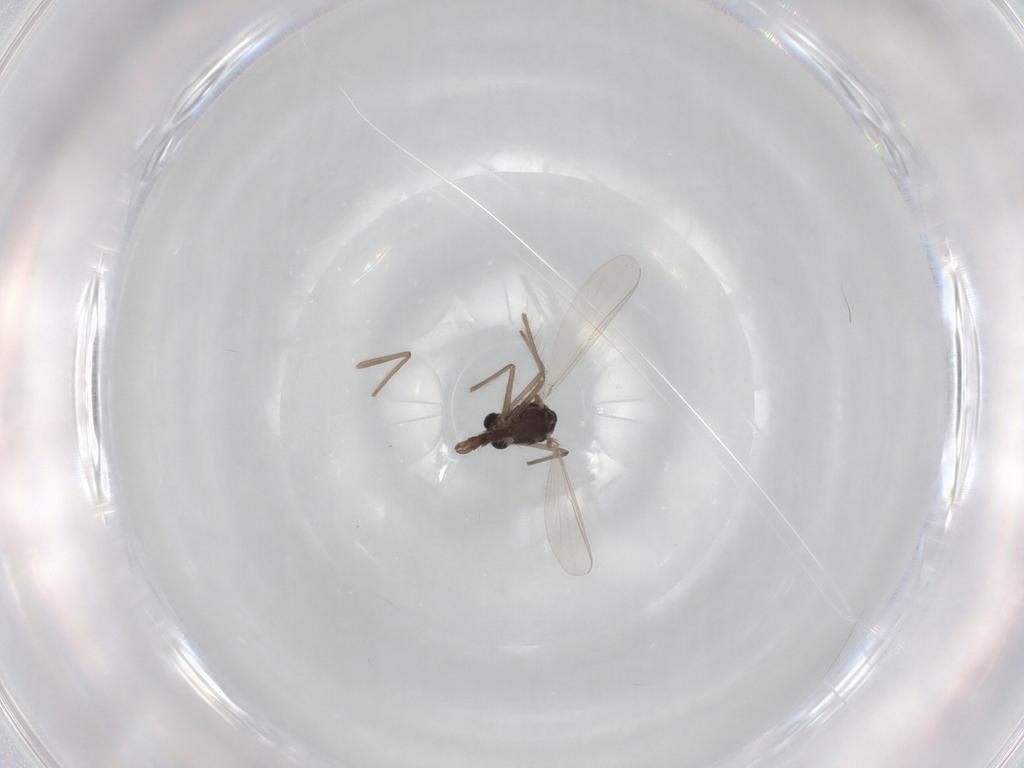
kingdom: Animalia
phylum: Arthropoda
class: Insecta
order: Diptera
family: Chironomidae
